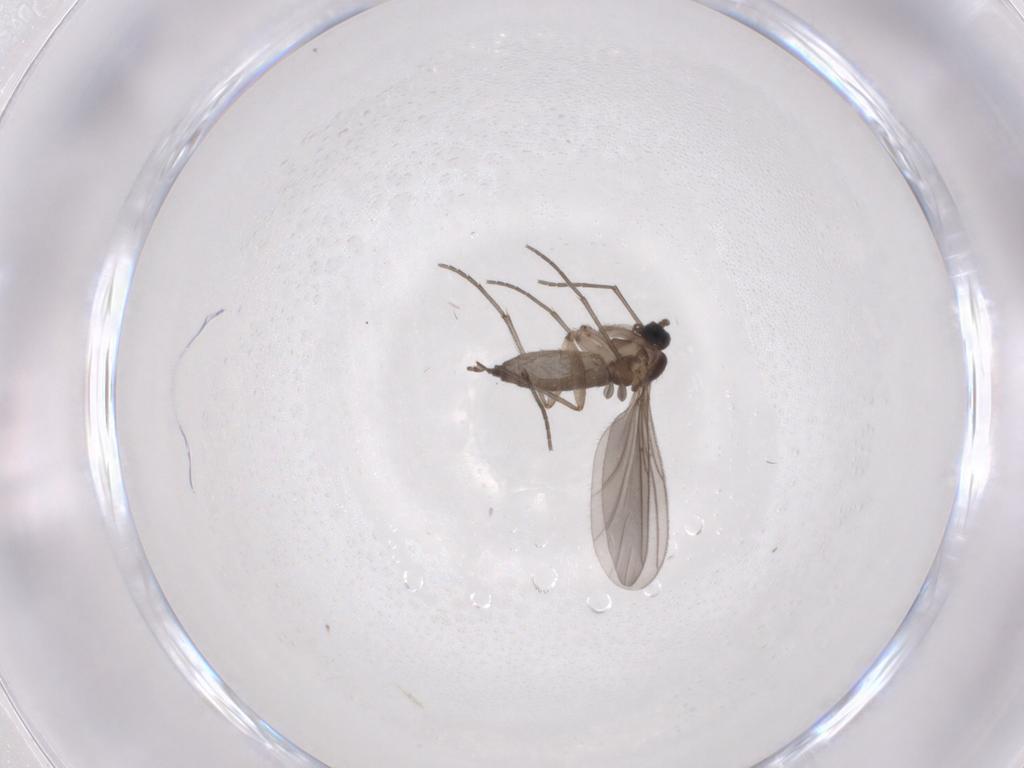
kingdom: Animalia
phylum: Arthropoda
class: Insecta
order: Diptera
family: Sciaridae
